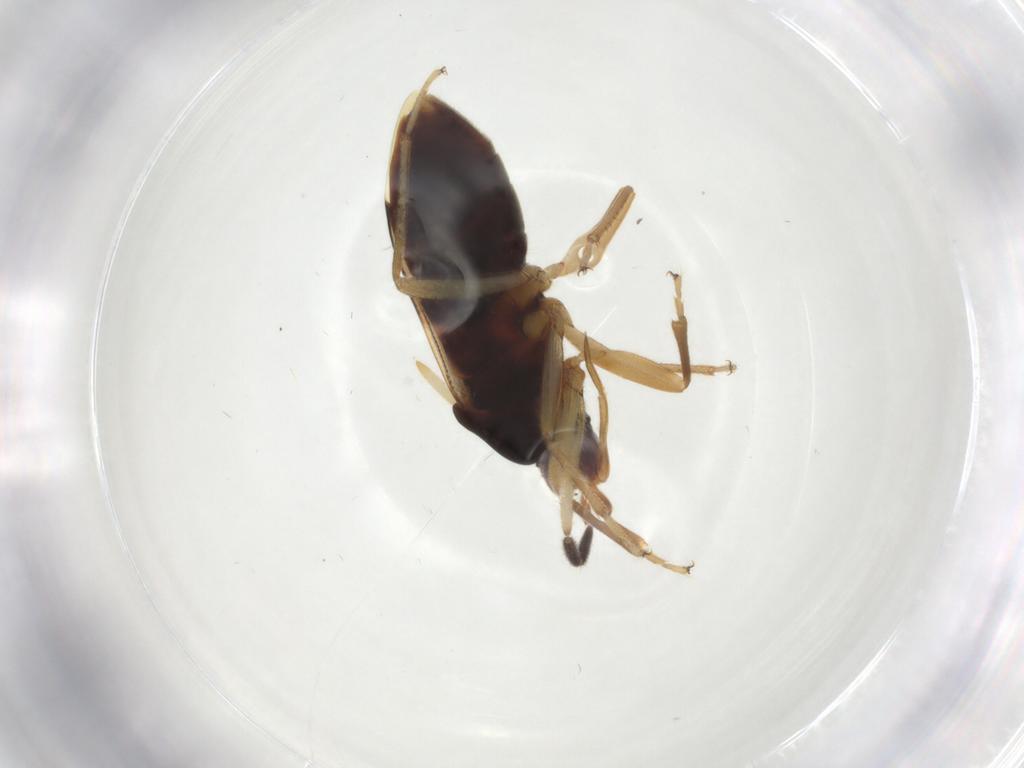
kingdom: Animalia
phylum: Arthropoda
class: Insecta
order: Hemiptera
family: Rhyparochromidae
